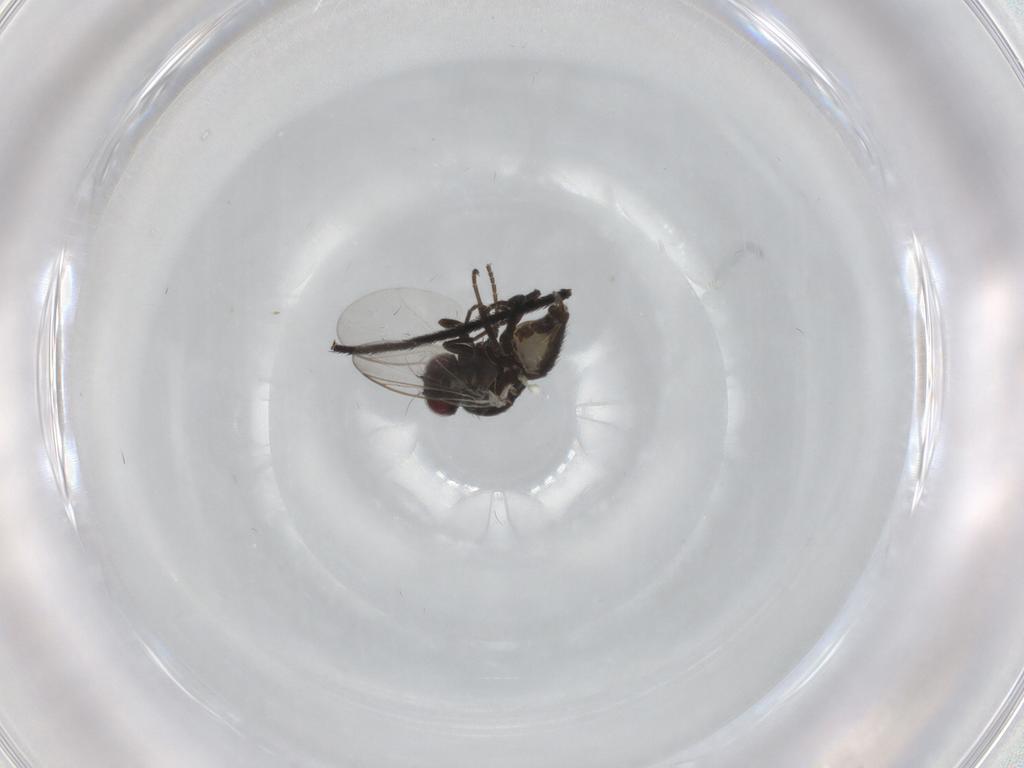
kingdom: Animalia
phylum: Arthropoda
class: Insecta
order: Diptera
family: Agromyzidae
